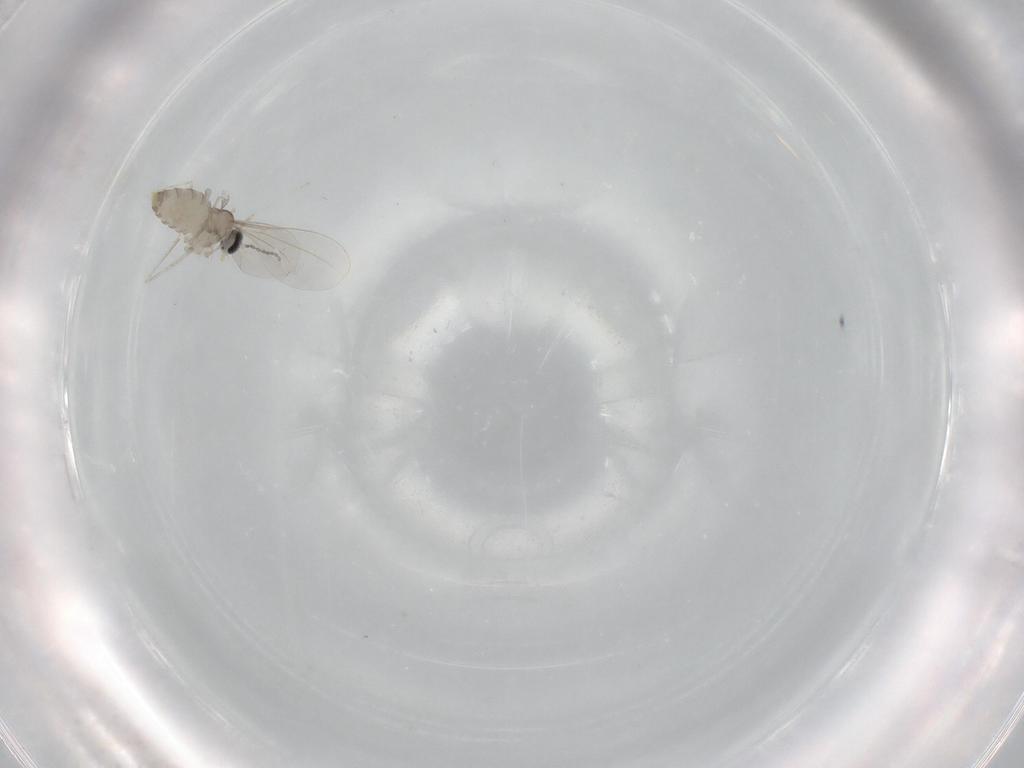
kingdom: Animalia
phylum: Arthropoda
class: Insecta
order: Diptera
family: Cecidomyiidae
